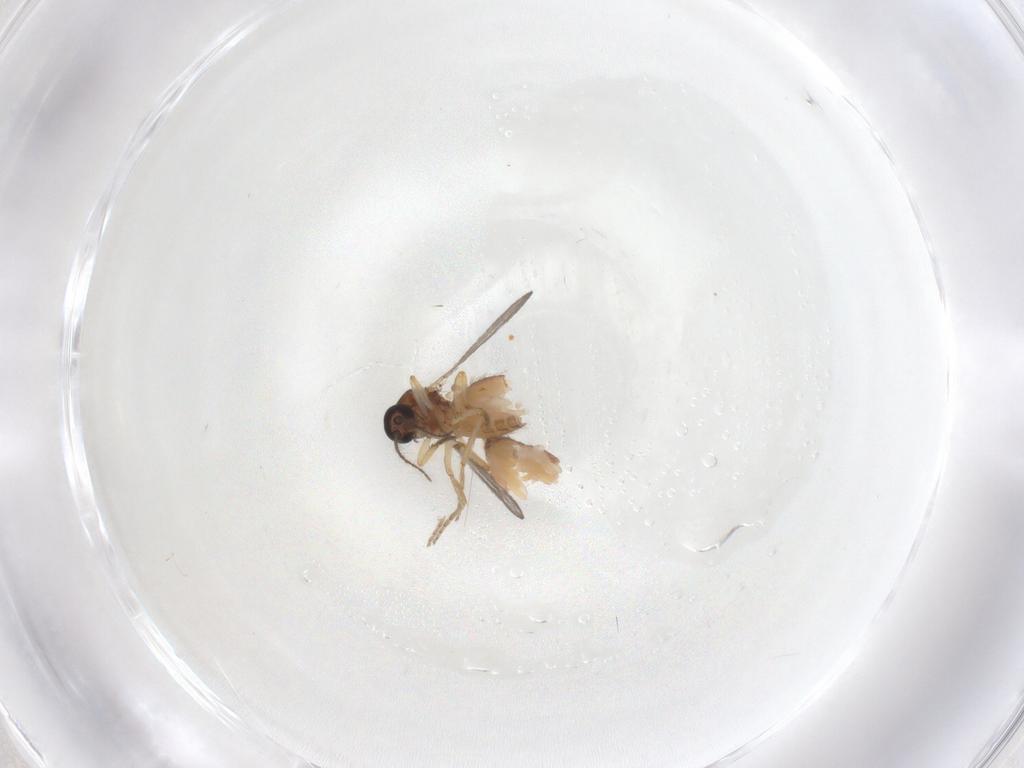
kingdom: Animalia
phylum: Arthropoda
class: Insecta
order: Diptera
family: Ceratopogonidae
